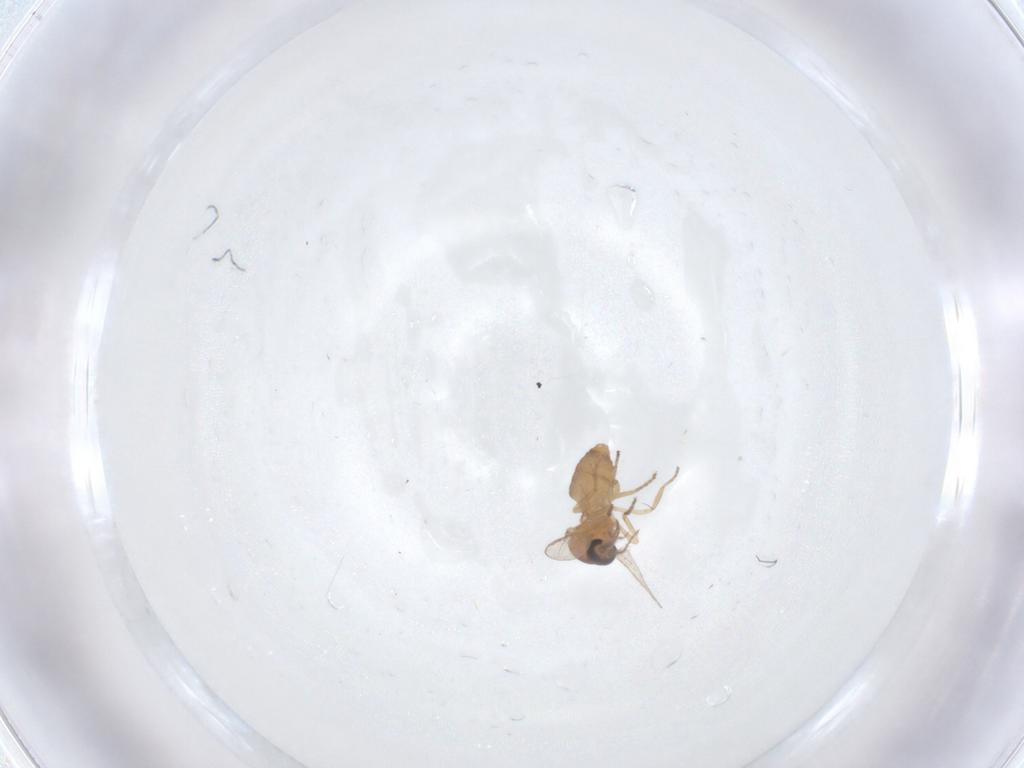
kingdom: Animalia
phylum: Arthropoda
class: Insecta
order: Diptera
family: Ceratopogonidae
